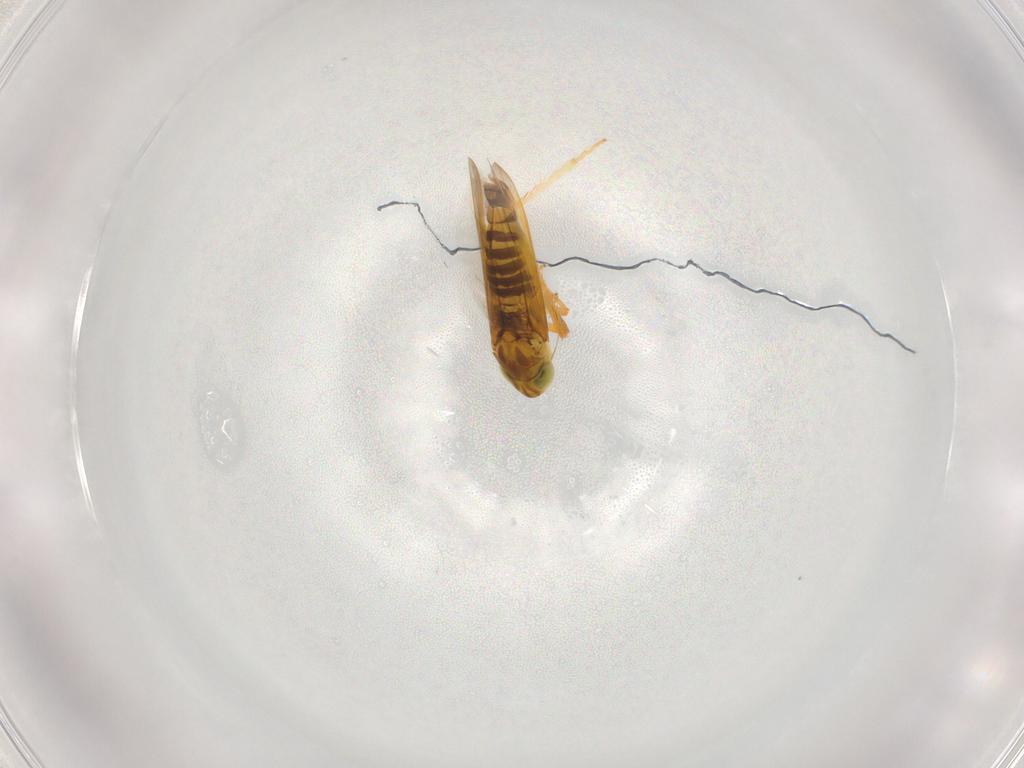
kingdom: Animalia
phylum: Arthropoda
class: Insecta
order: Hemiptera
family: Cicadellidae
